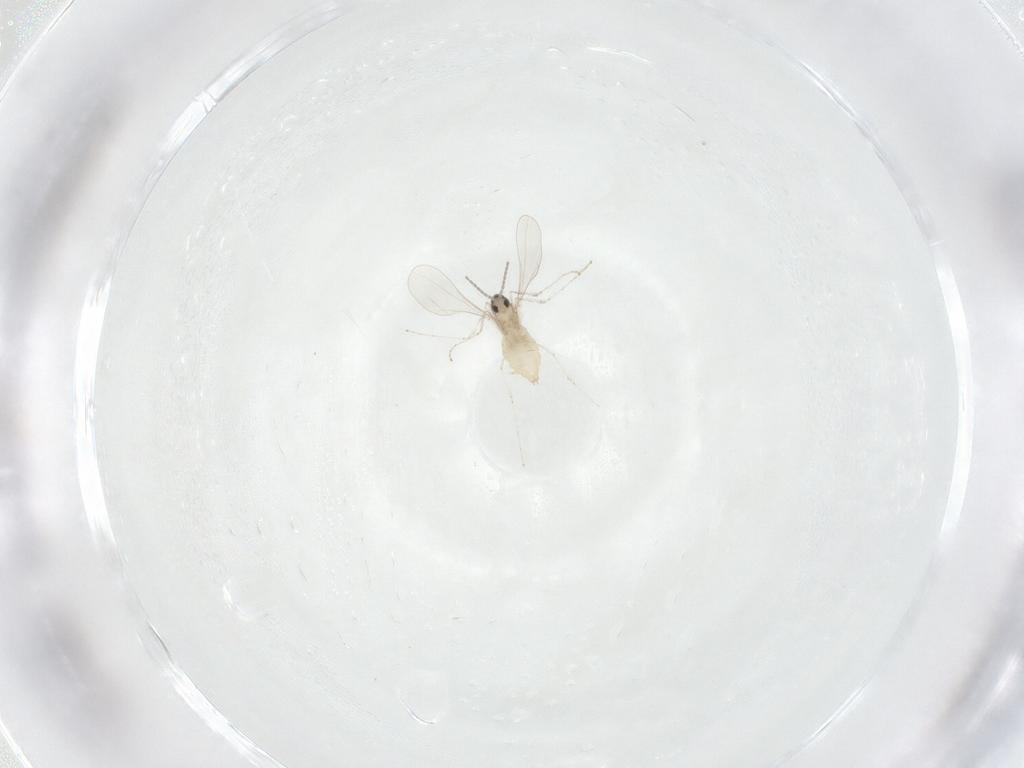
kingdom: Animalia
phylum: Arthropoda
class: Insecta
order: Diptera
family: Cecidomyiidae
